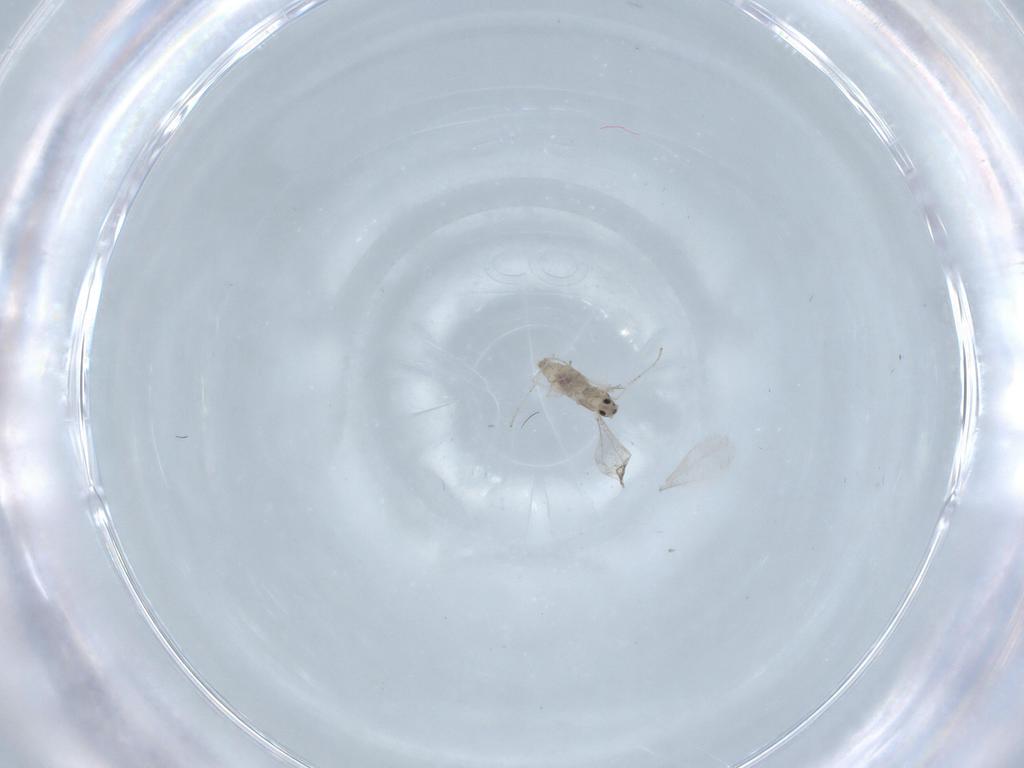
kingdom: Animalia
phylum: Arthropoda
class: Insecta
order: Diptera
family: Cecidomyiidae
